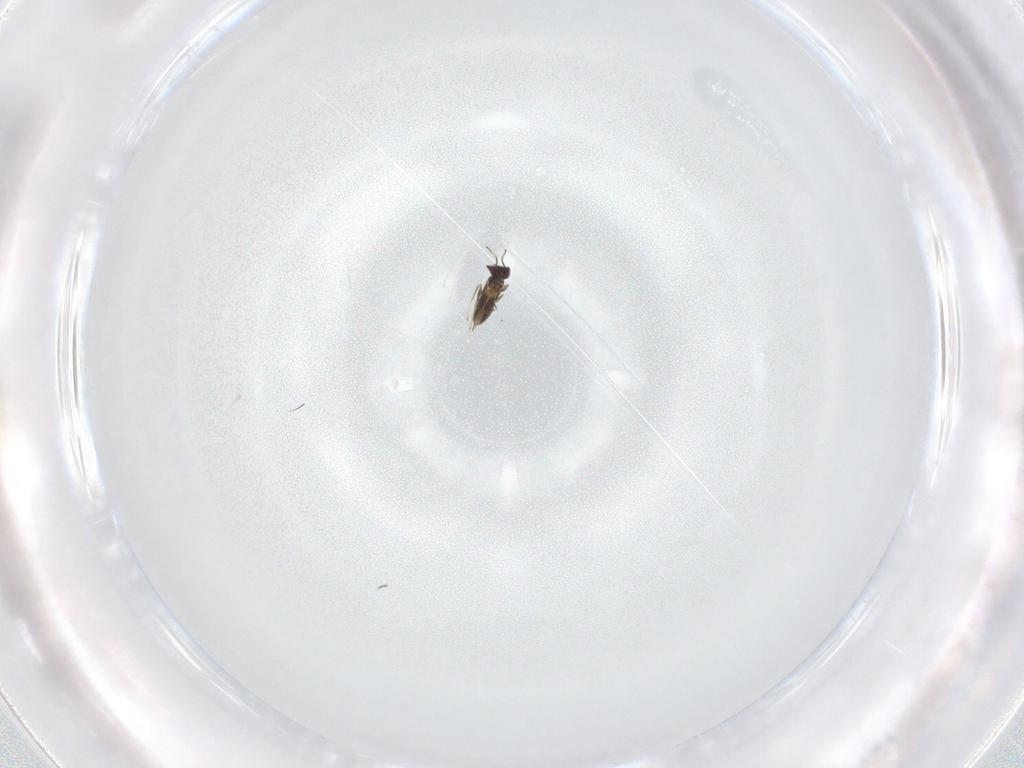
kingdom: Animalia
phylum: Arthropoda
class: Insecta
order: Hymenoptera
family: Mymaridae
